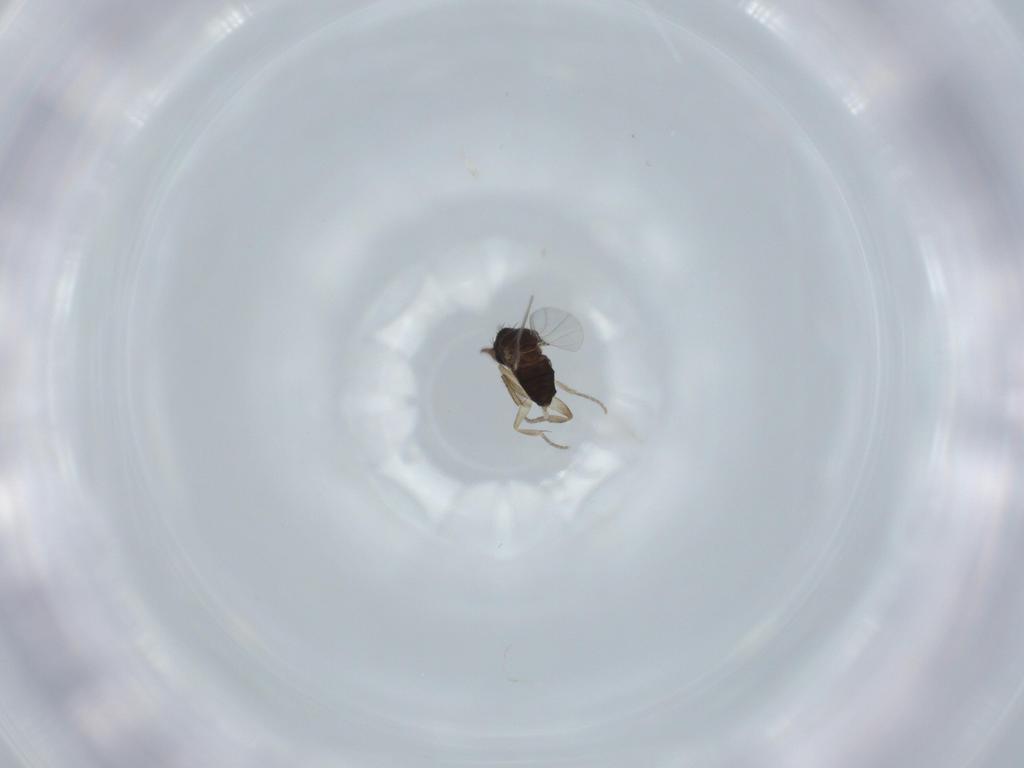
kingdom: Animalia
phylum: Arthropoda
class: Insecta
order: Diptera
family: Phoridae
